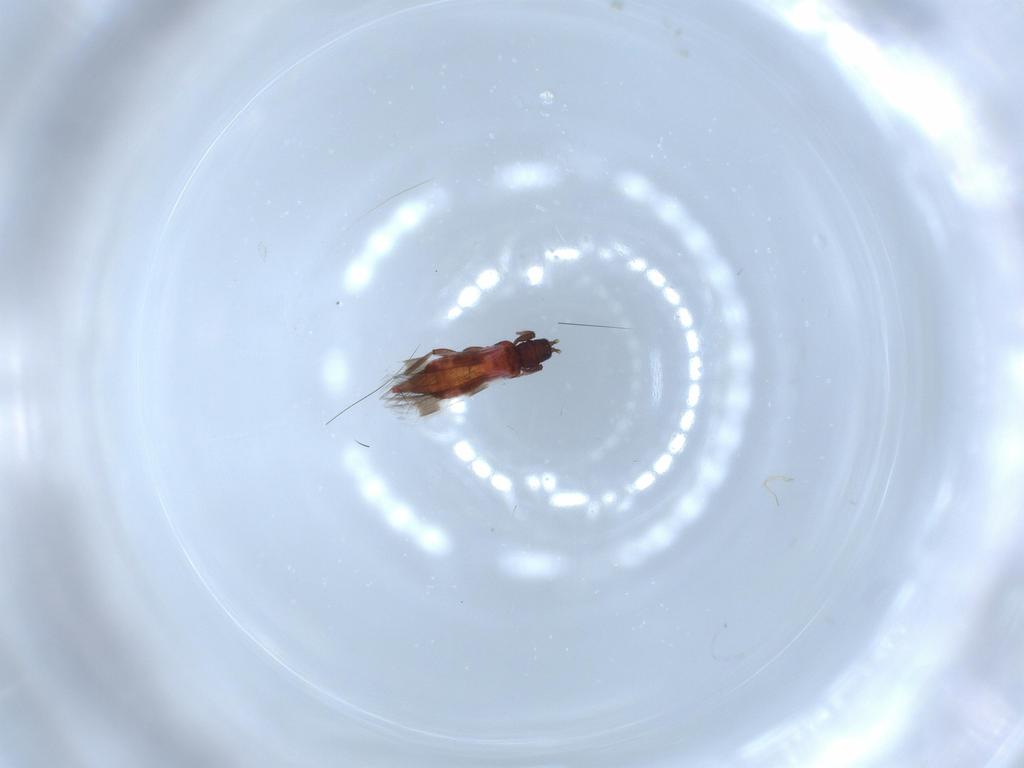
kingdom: Animalia
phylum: Arthropoda
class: Insecta
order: Thysanoptera
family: Aeolothripidae
